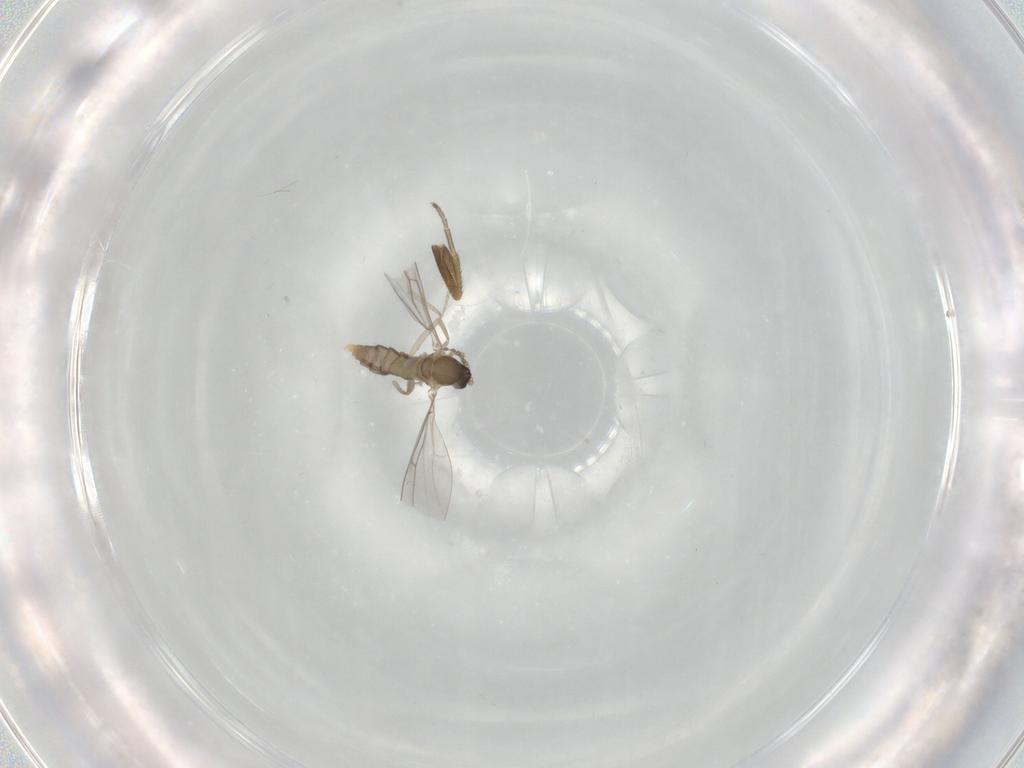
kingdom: Animalia
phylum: Arthropoda
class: Insecta
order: Diptera
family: Cecidomyiidae
